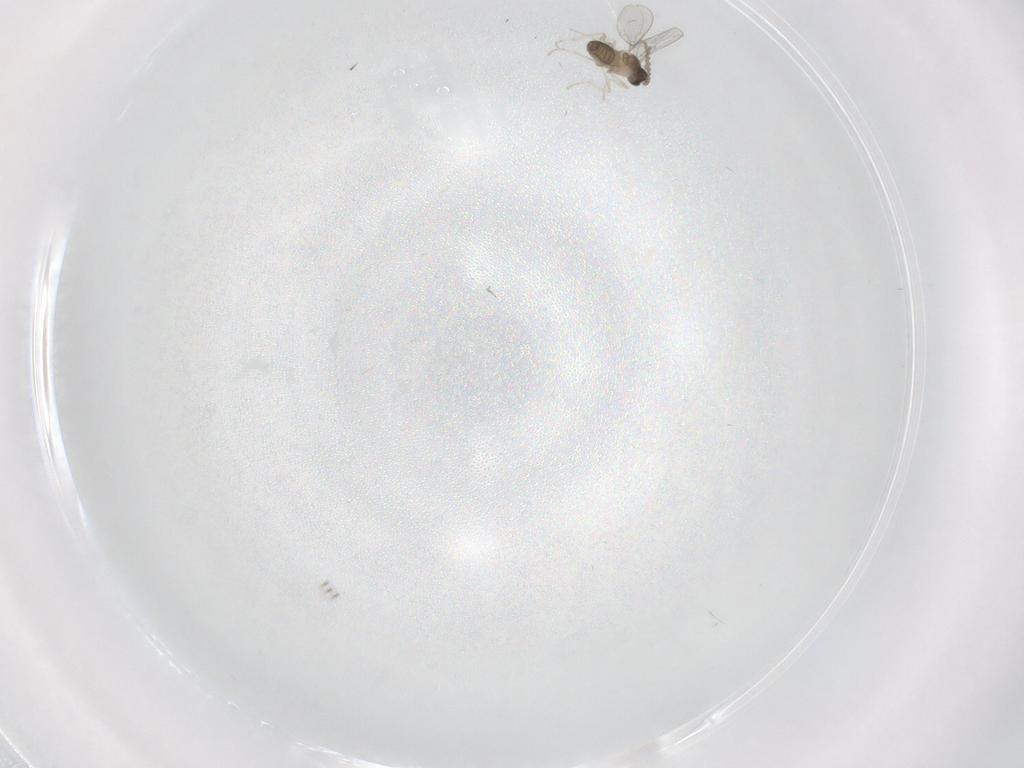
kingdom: Animalia
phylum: Arthropoda
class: Insecta
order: Diptera
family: Cecidomyiidae
